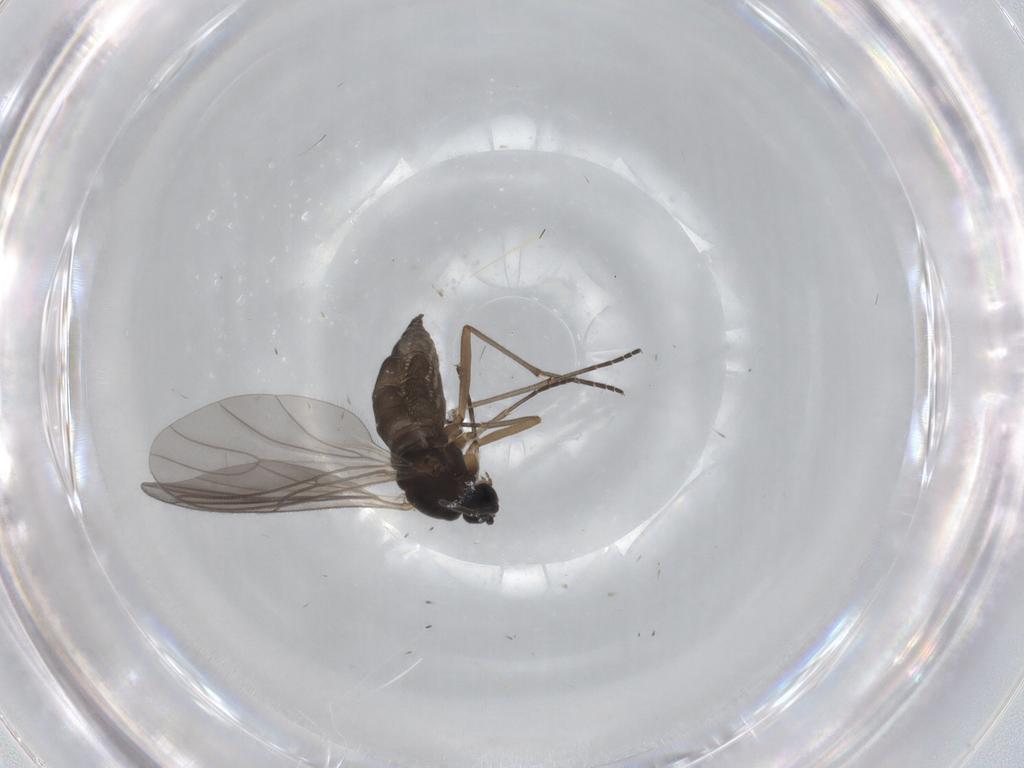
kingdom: Animalia
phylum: Arthropoda
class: Insecta
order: Diptera
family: Sciaridae
